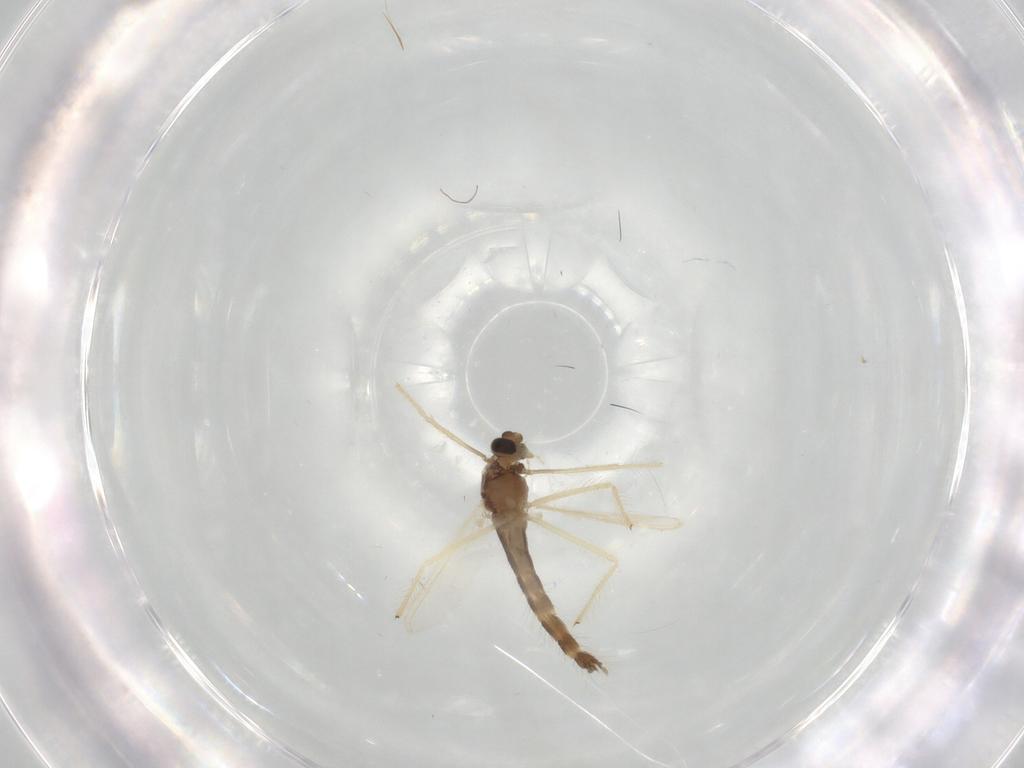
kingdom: Animalia
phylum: Arthropoda
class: Insecta
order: Diptera
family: Chironomidae
